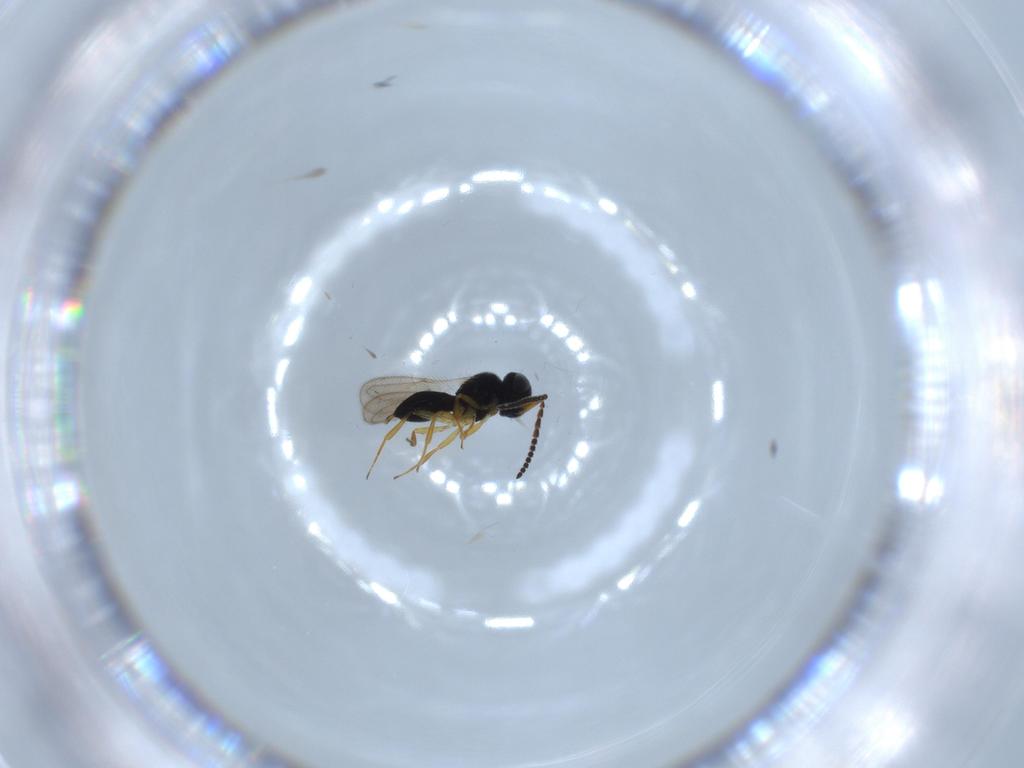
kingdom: Animalia
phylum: Arthropoda
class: Insecta
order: Hymenoptera
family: Scelionidae
